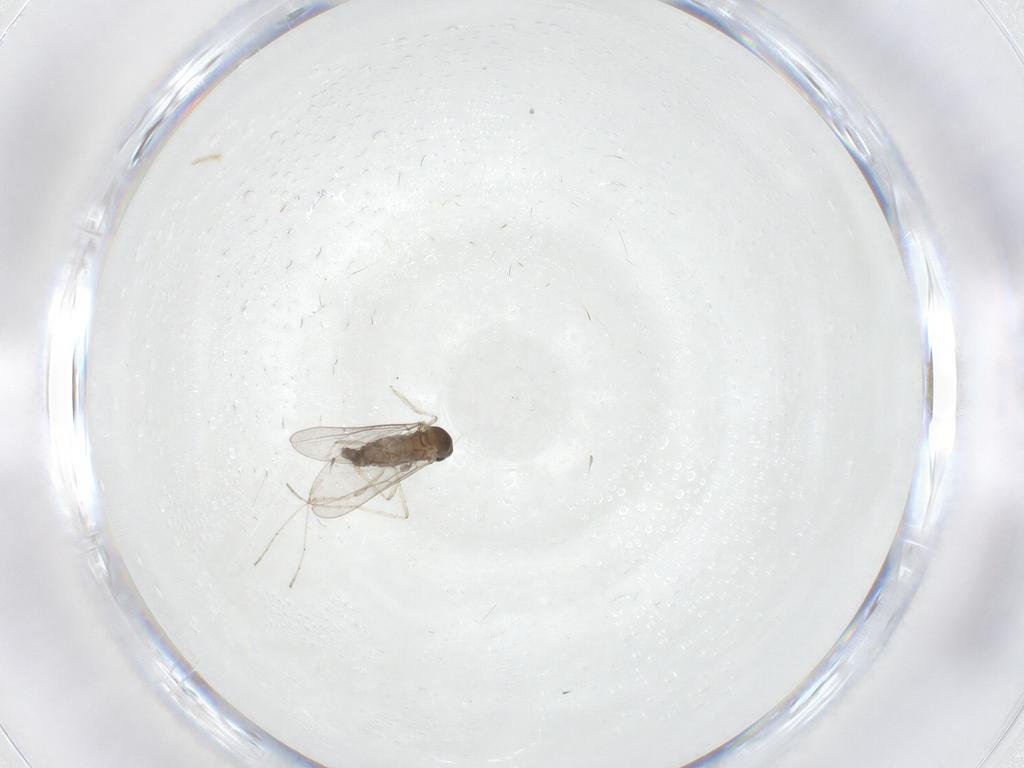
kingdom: Animalia
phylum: Arthropoda
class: Insecta
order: Diptera
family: Cecidomyiidae
